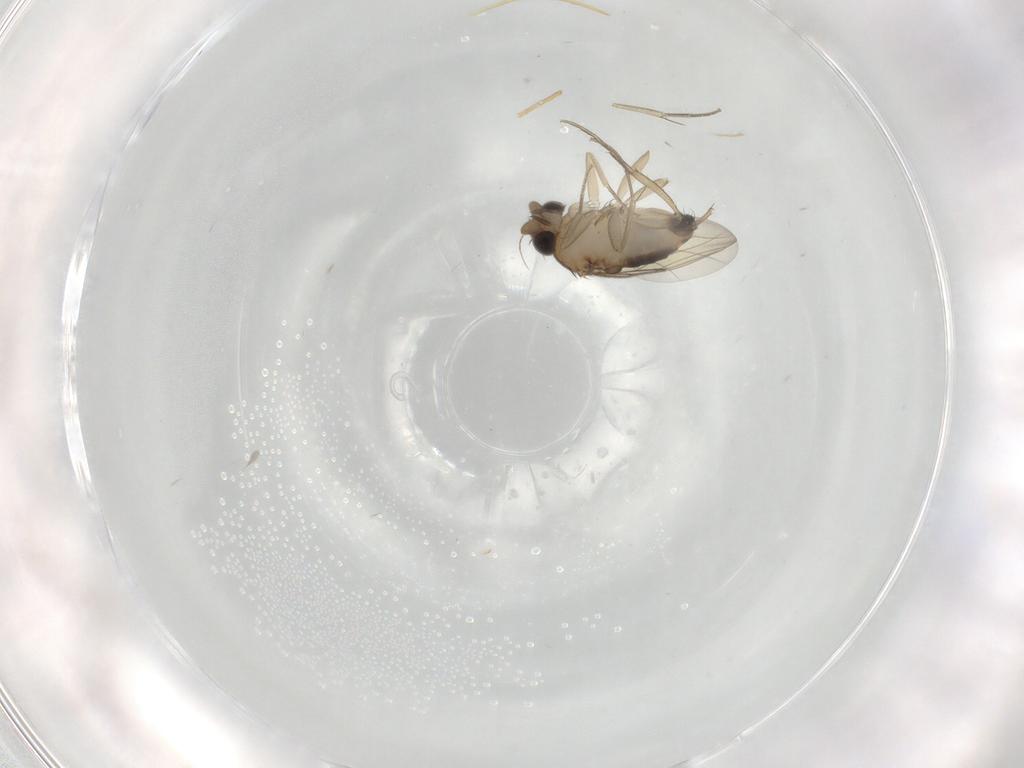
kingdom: Animalia
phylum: Arthropoda
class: Insecta
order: Diptera
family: Phoridae
